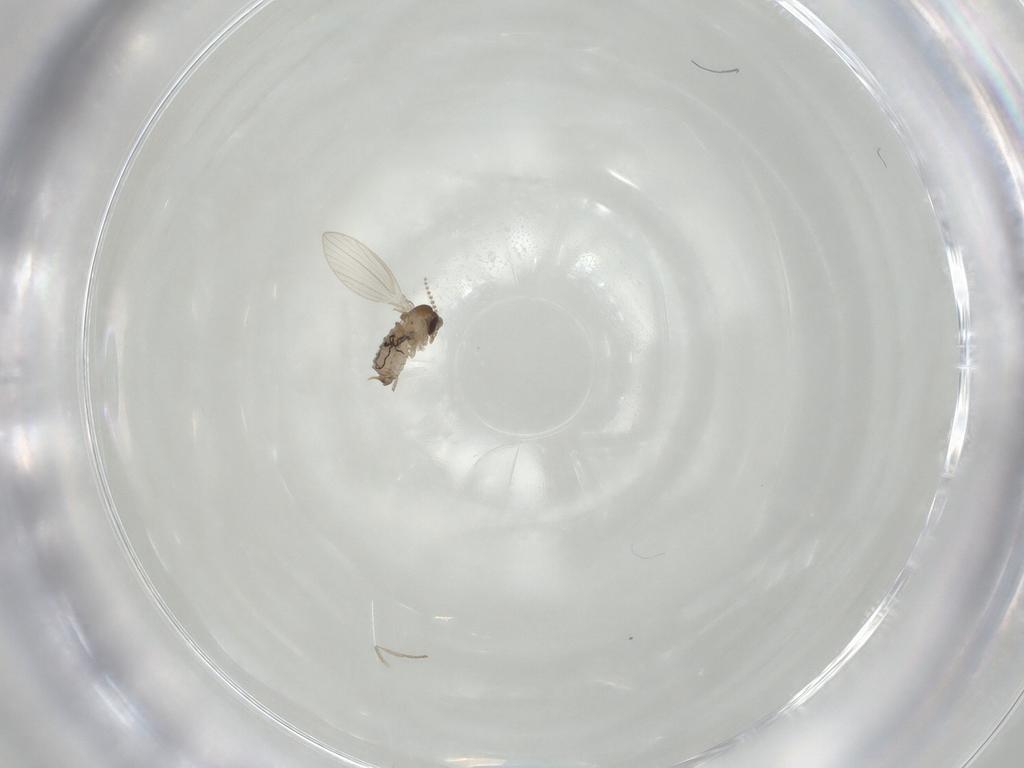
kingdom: Animalia
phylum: Arthropoda
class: Insecta
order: Diptera
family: Psychodidae
